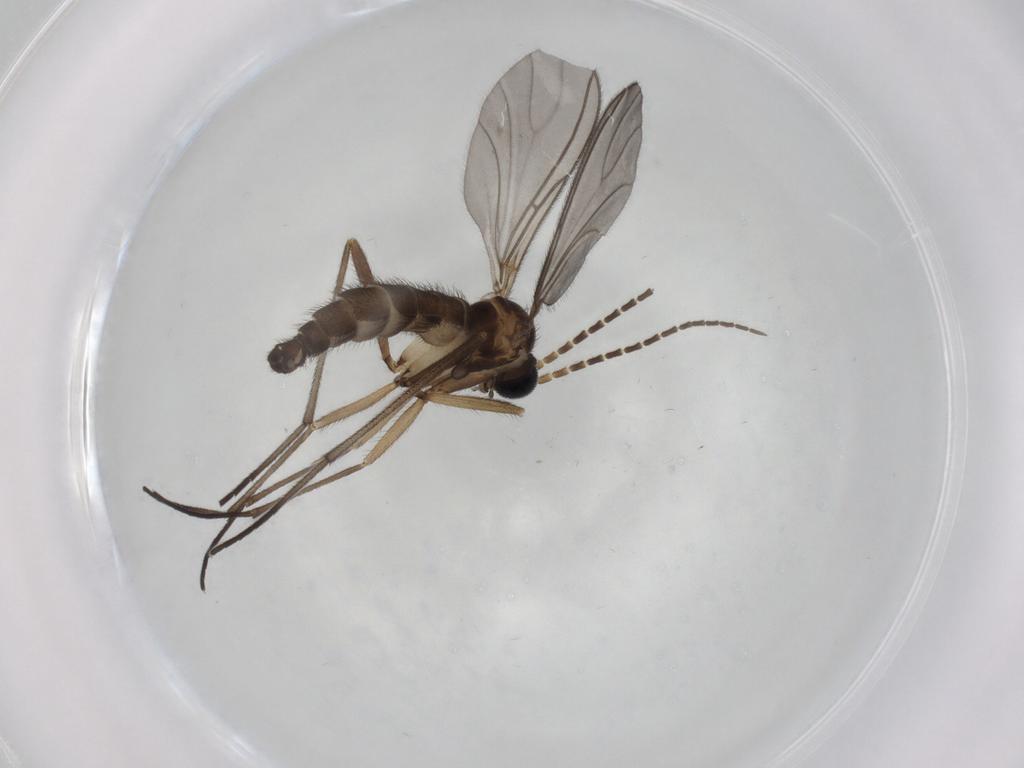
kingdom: Animalia
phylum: Arthropoda
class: Insecta
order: Diptera
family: Sciaridae
